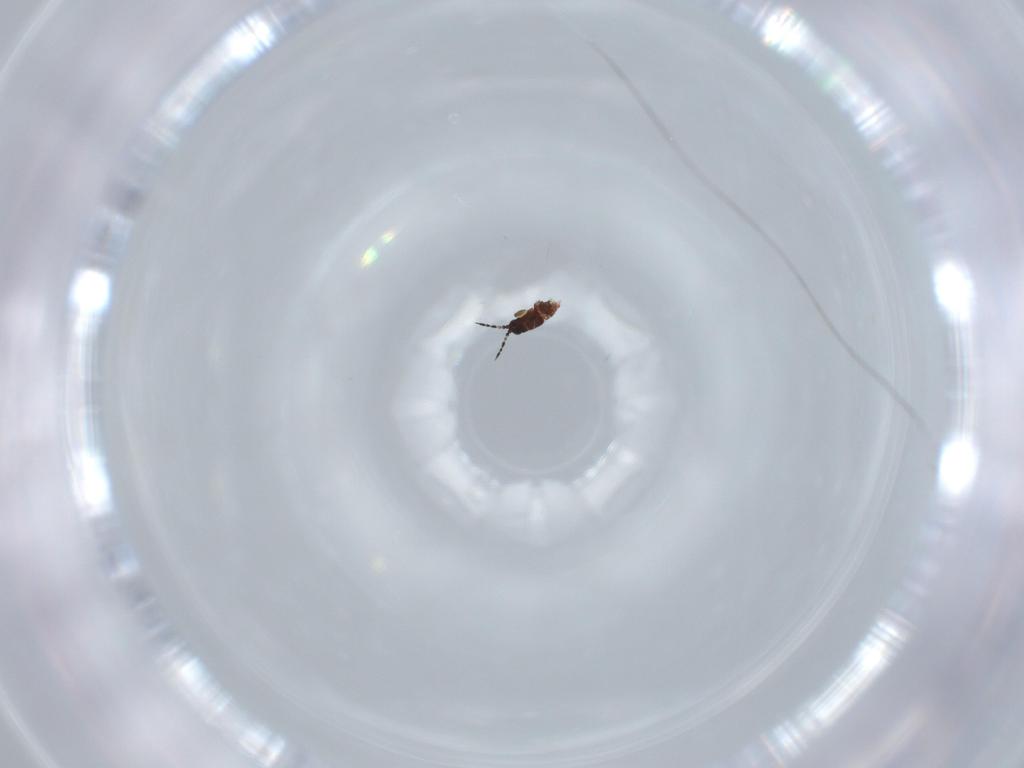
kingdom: Animalia
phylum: Arthropoda
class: Insecta
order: Thysanoptera
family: Thripidae
